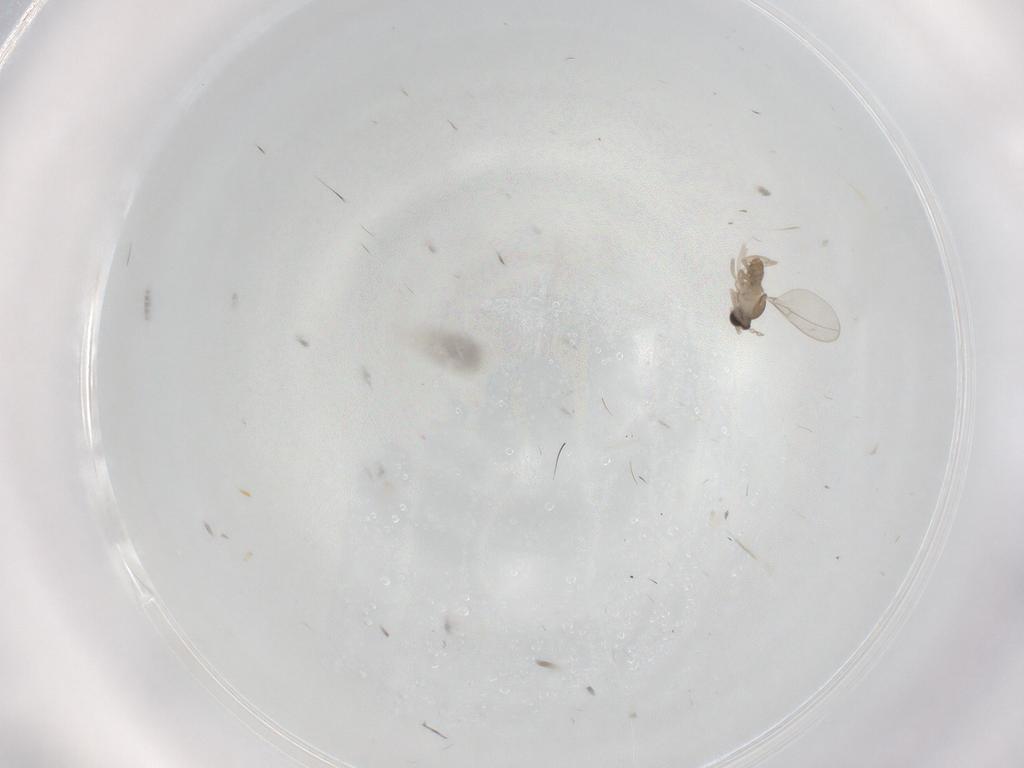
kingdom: Animalia
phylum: Arthropoda
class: Insecta
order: Diptera
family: Cecidomyiidae
